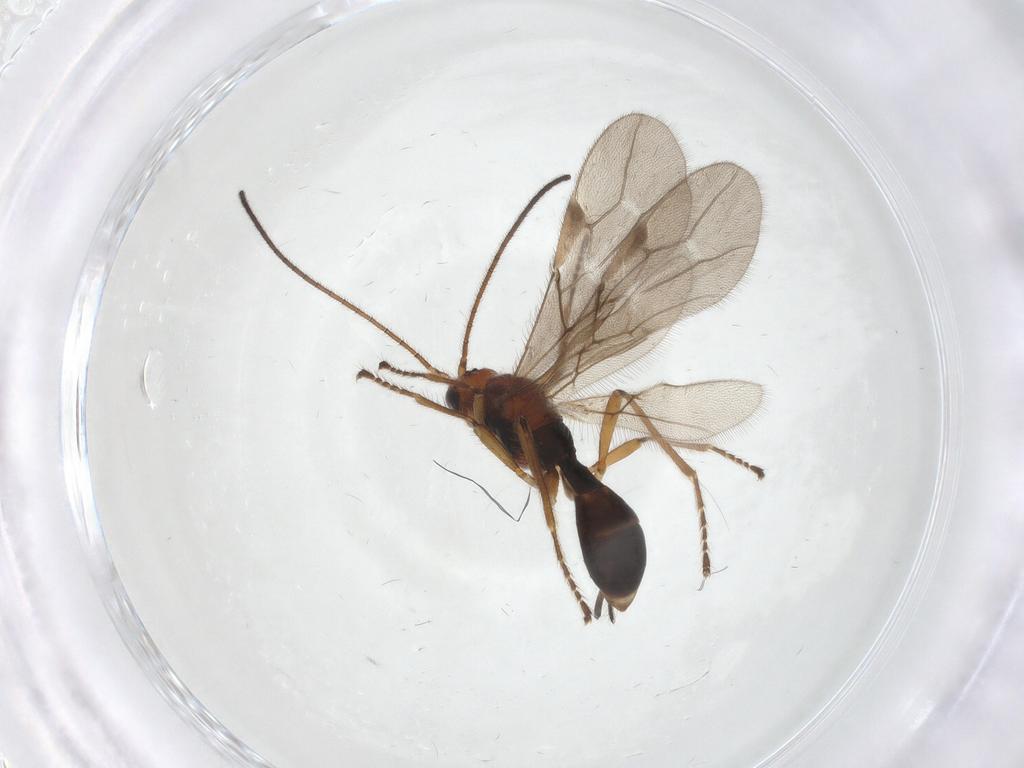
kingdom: Animalia
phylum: Arthropoda
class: Insecta
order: Hymenoptera
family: Braconidae
